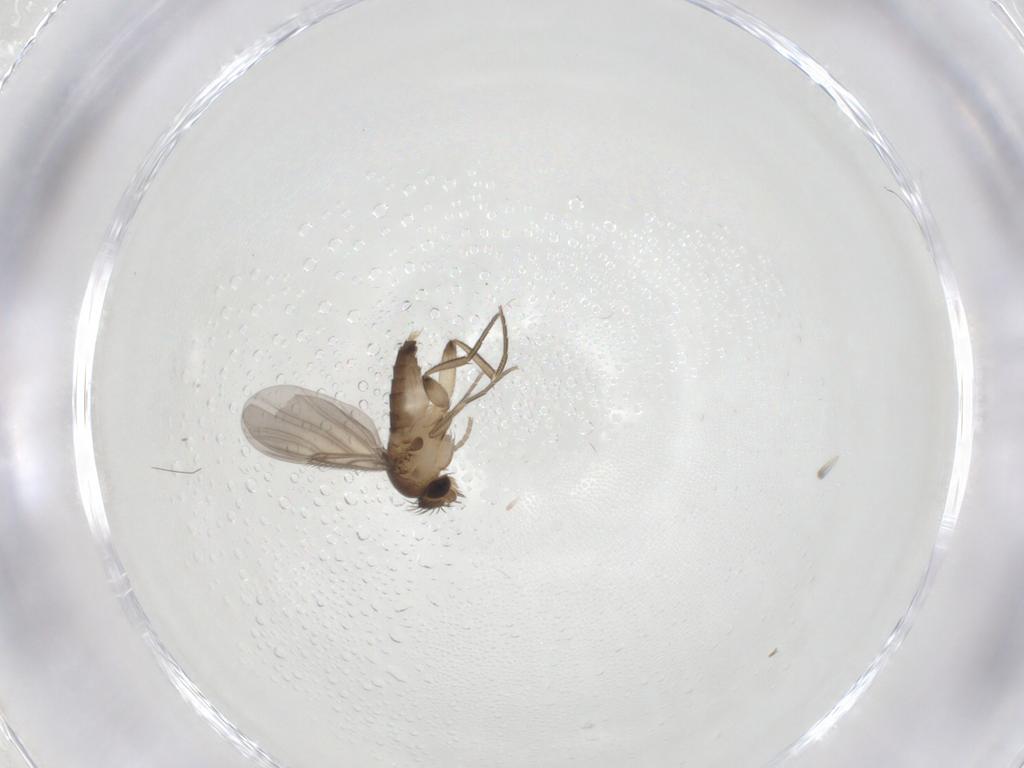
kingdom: Animalia
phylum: Arthropoda
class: Insecta
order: Diptera
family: Phoridae
